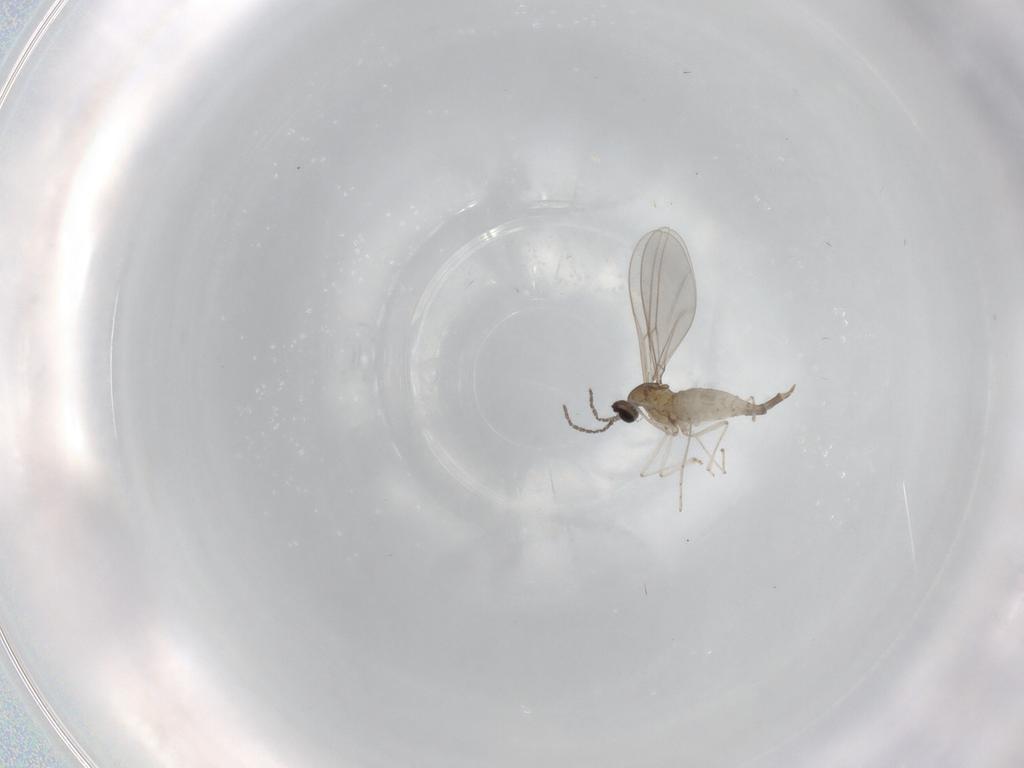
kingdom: Animalia
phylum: Arthropoda
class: Insecta
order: Diptera
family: Cecidomyiidae
